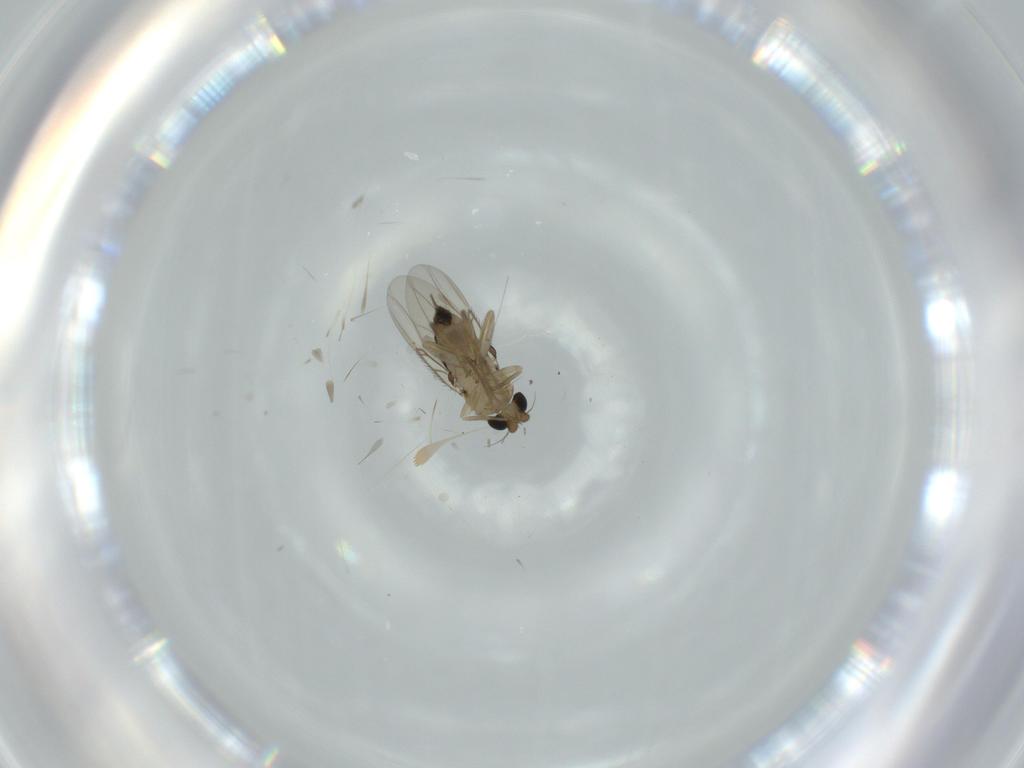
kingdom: Animalia
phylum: Arthropoda
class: Insecta
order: Diptera
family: Phoridae
